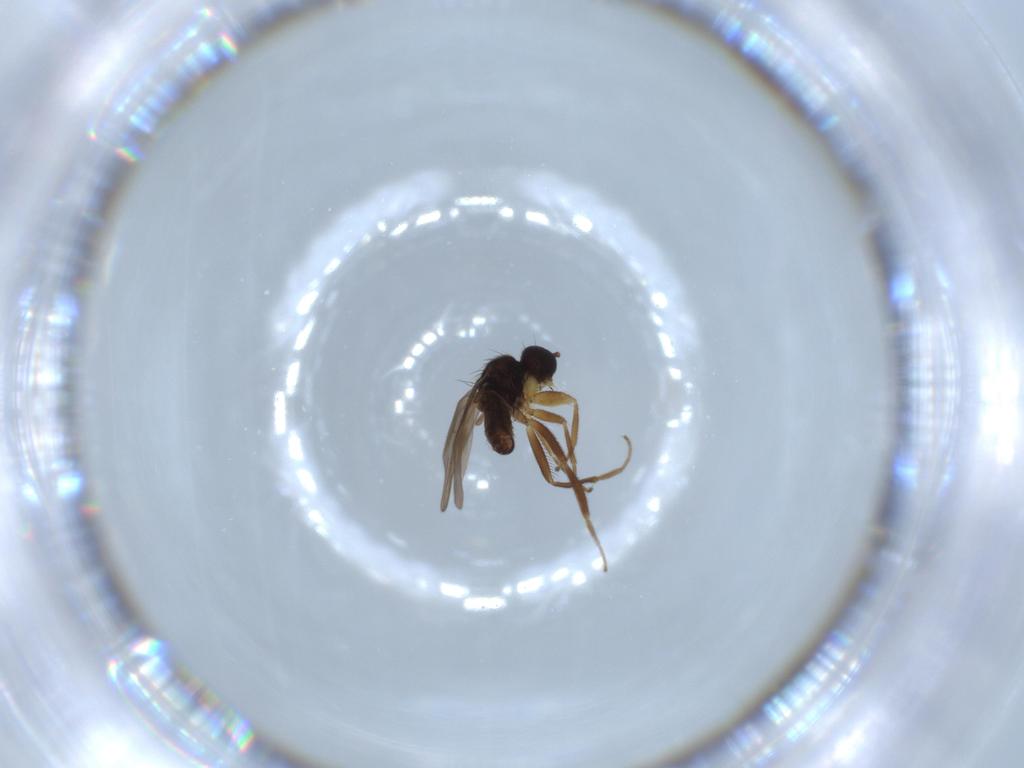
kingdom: Animalia
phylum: Arthropoda
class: Insecta
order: Diptera
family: Hybotidae
